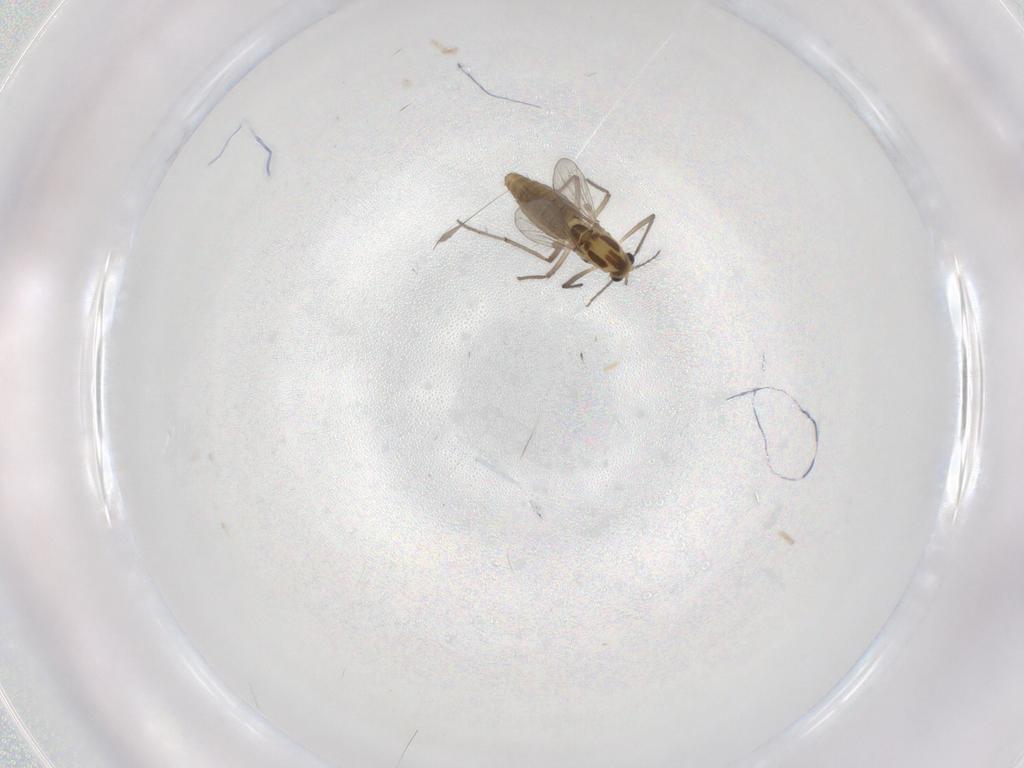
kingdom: Animalia
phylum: Arthropoda
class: Insecta
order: Diptera
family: Chironomidae
